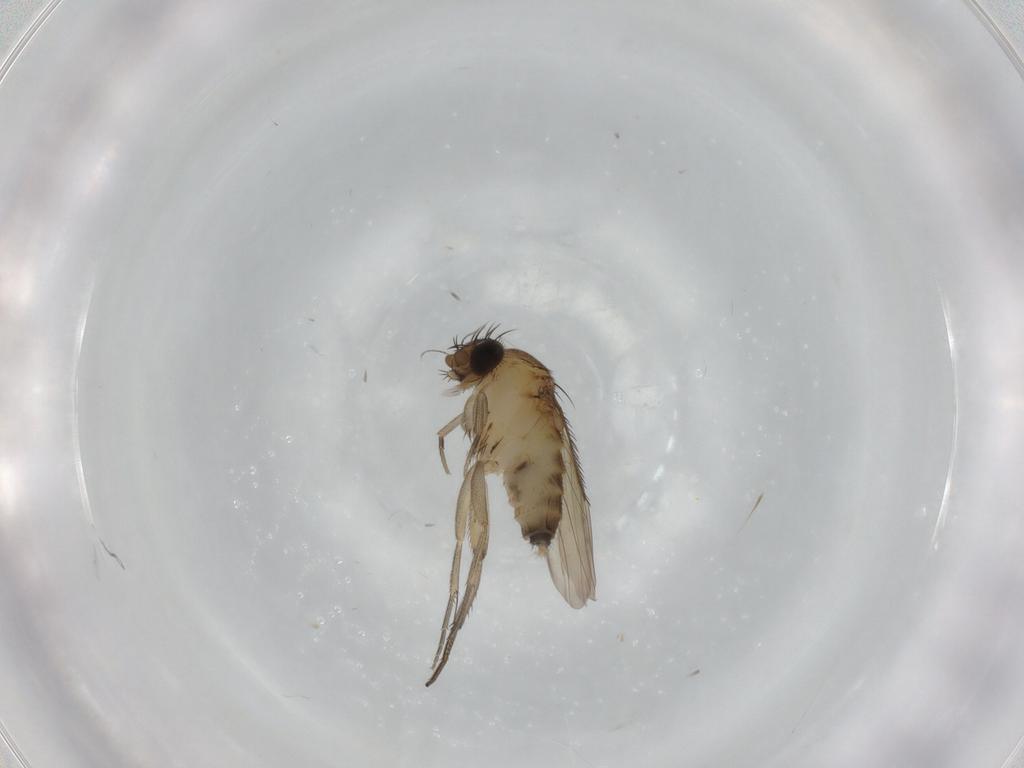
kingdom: Animalia
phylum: Arthropoda
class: Insecta
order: Diptera
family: Phoridae
